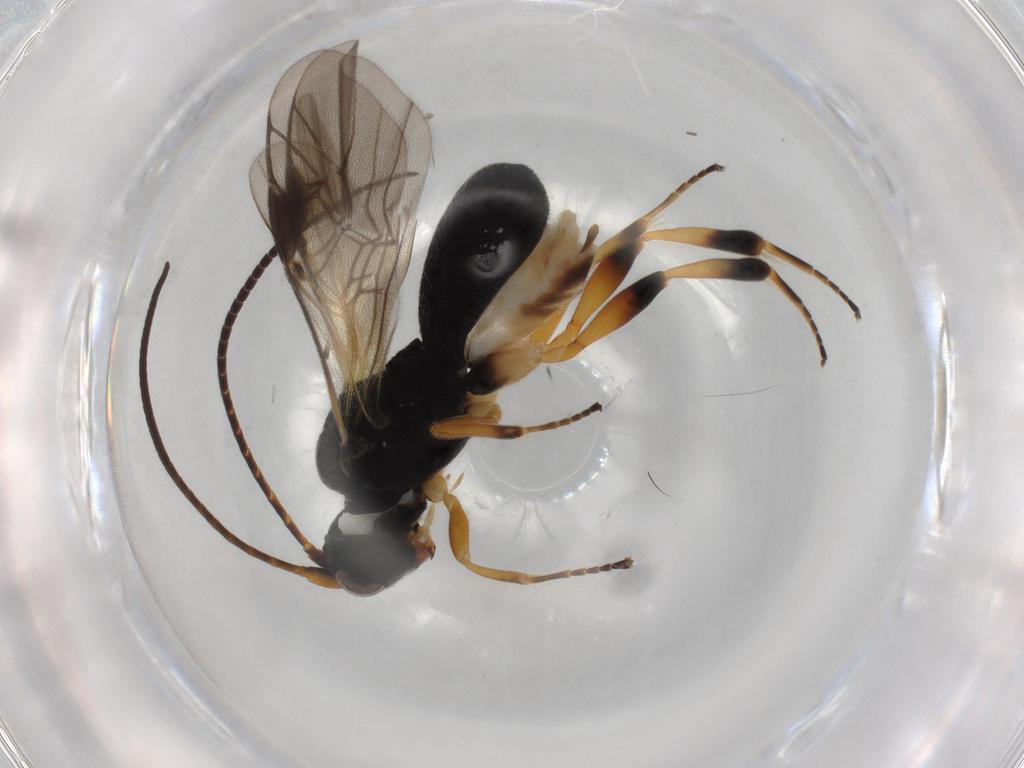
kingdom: Animalia
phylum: Arthropoda
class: Insecta
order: Hymenoptera
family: Braconidae
